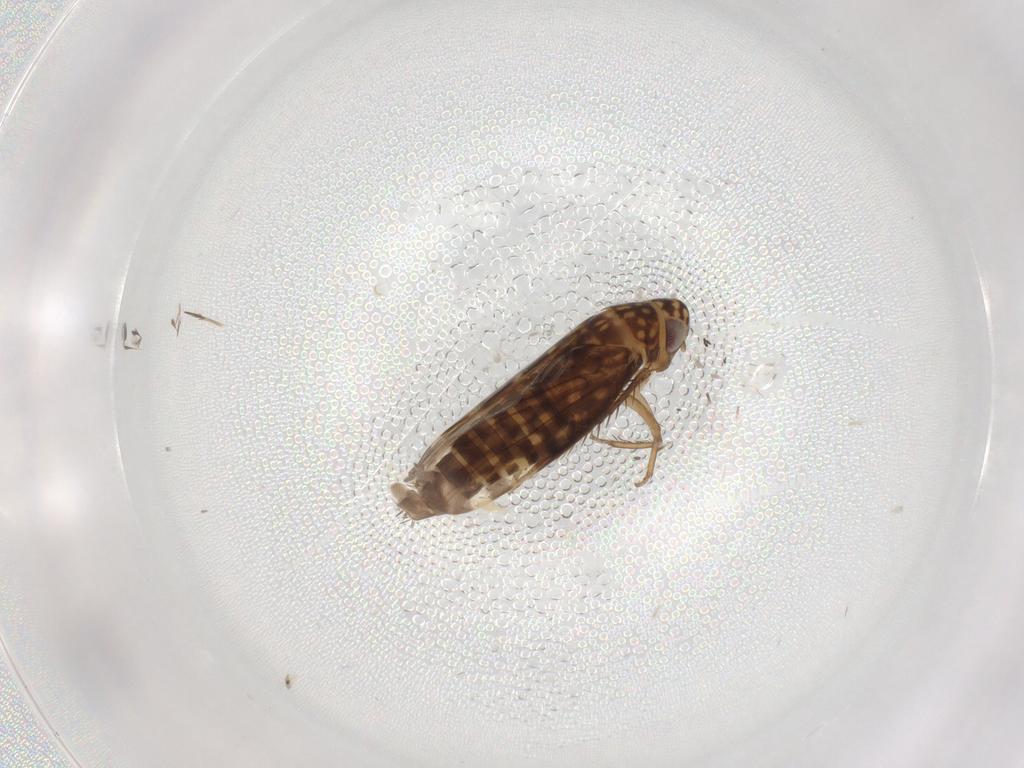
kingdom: Animalia
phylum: Arthropoda
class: Insecta
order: Hemiptera
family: Cicadellidae
